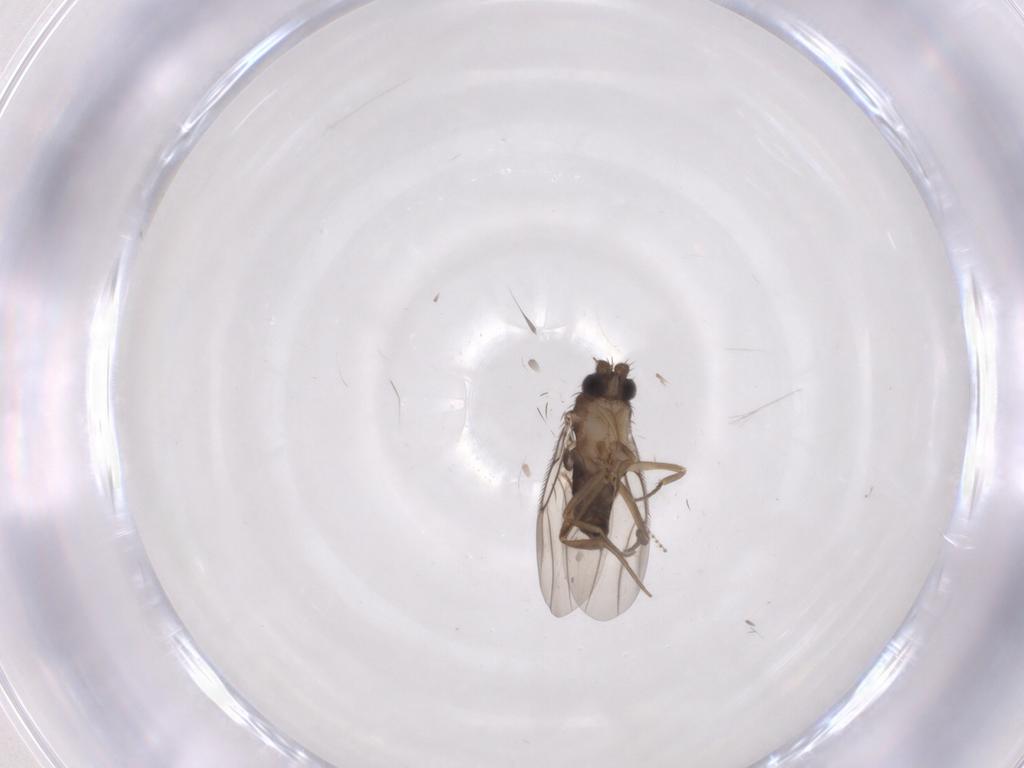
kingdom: Animalia
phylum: Arthropoda
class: Insecta
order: Diptera
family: Phoridae
